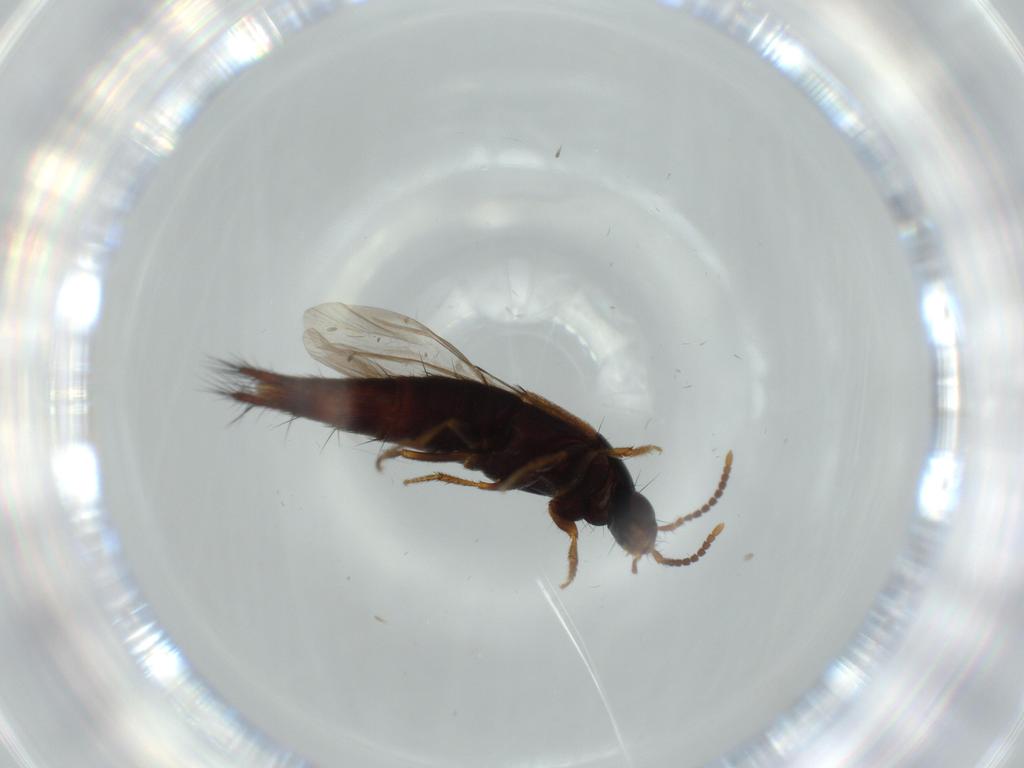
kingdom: Animalia
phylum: Arthropoda
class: Insecta
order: Coleoptera
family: Staphylinidae
